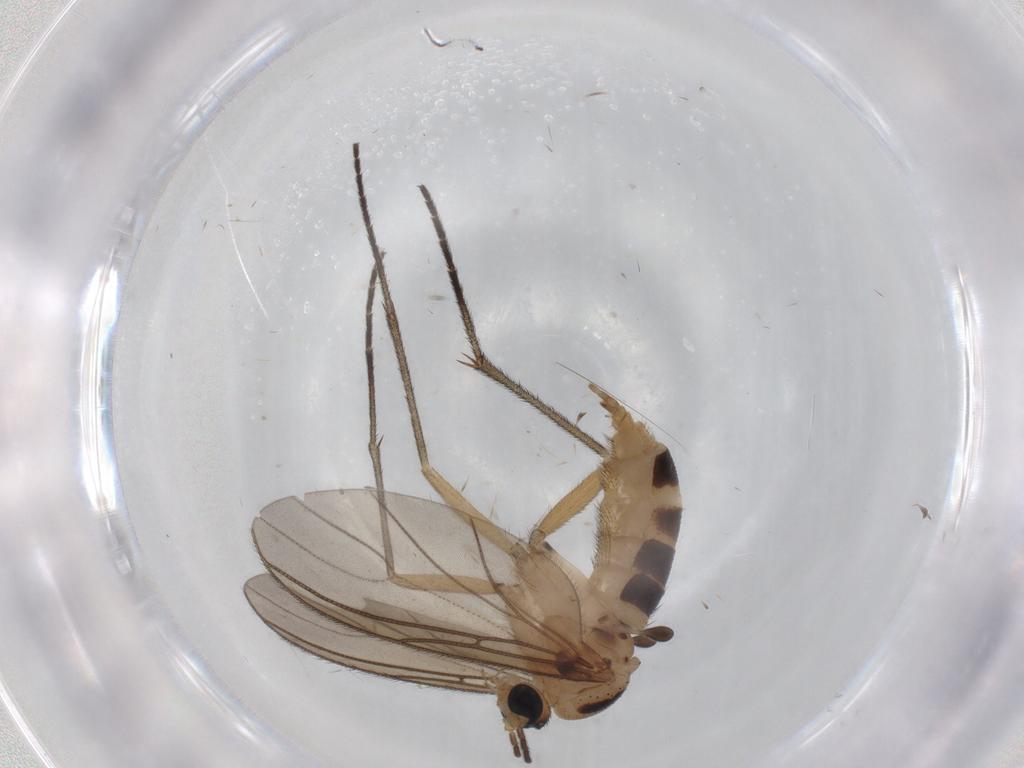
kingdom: Animalia
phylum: Arthropoda
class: Insecta
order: Diptera
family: Sciaridae
